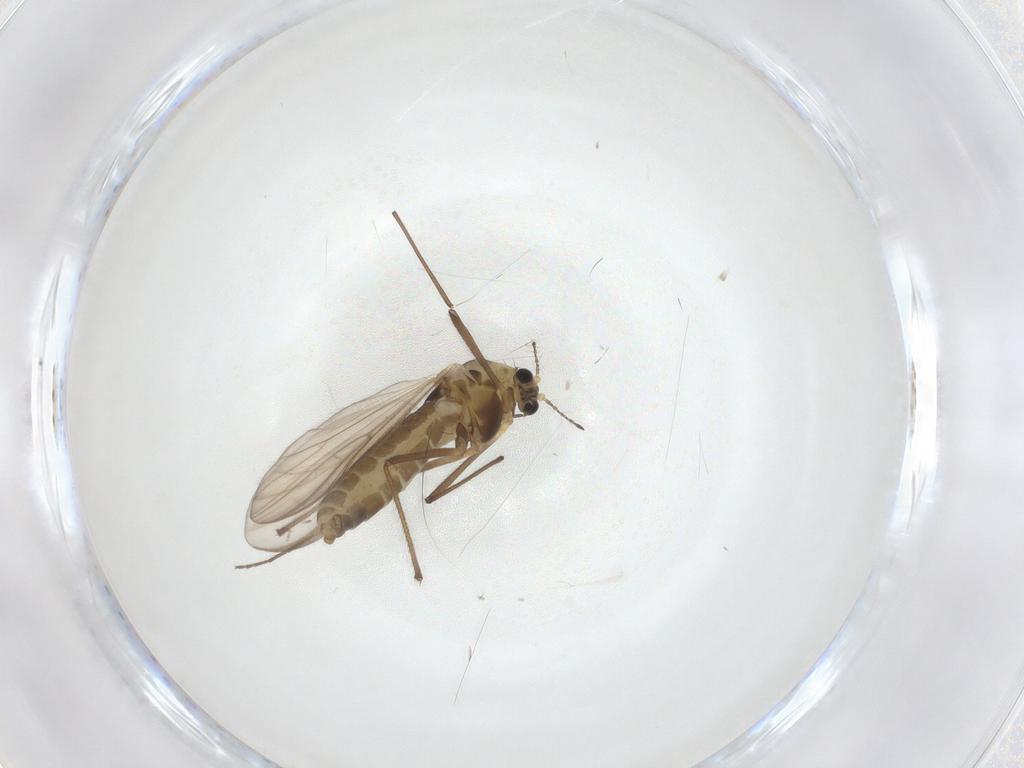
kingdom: Animalia
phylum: Arthropoda
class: Insecta
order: Diptera
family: Chironomidae
